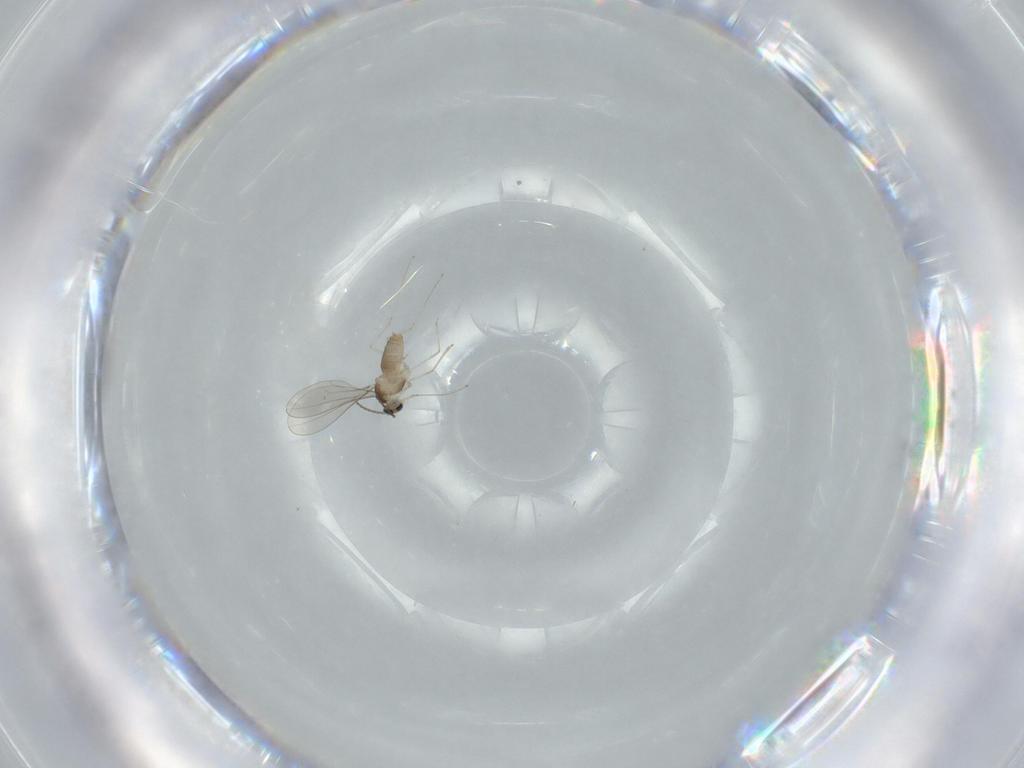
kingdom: Animalia
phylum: Arthropoda
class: Insecta
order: Diptera
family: Cecidomyiidae
